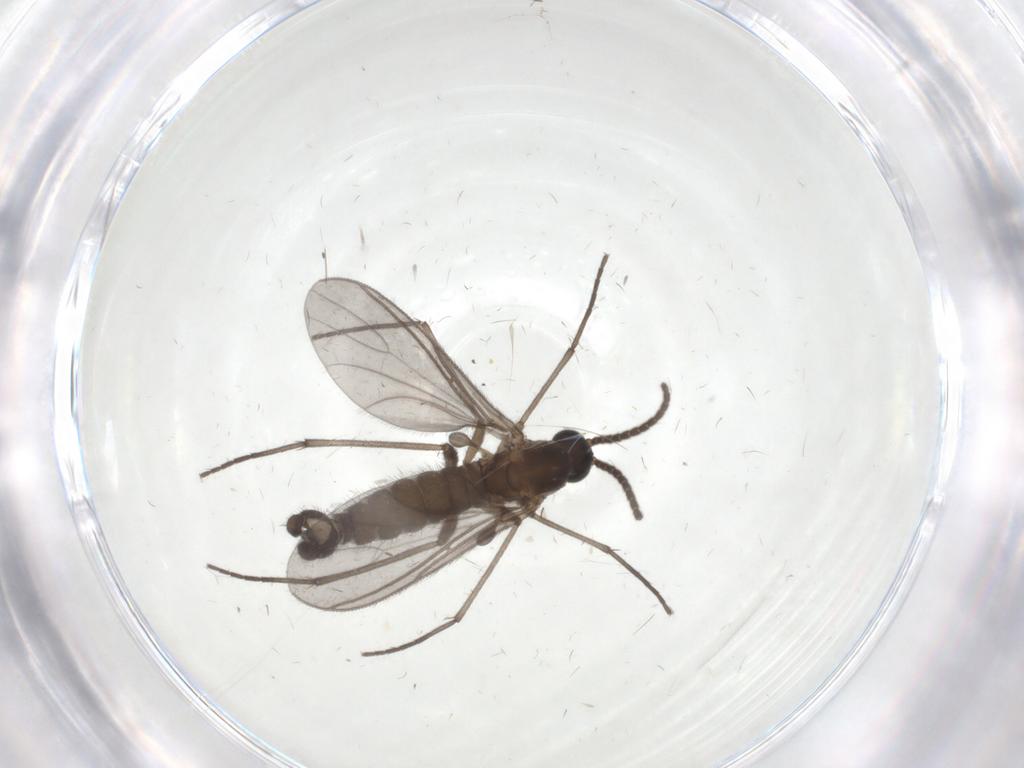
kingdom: Animalia
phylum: Arthropoda
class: Insecta
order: Diptera
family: Sciaridae
